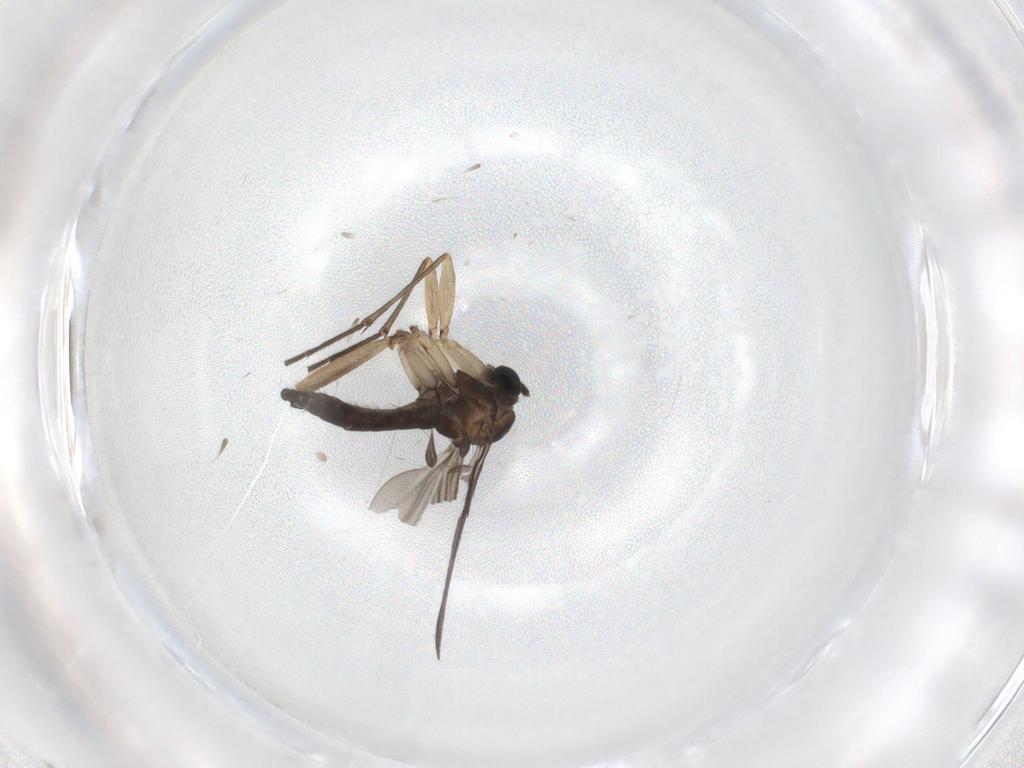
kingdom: Animalia
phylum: Arthropoda
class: Insecta
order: Diptera
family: Sciaridae
